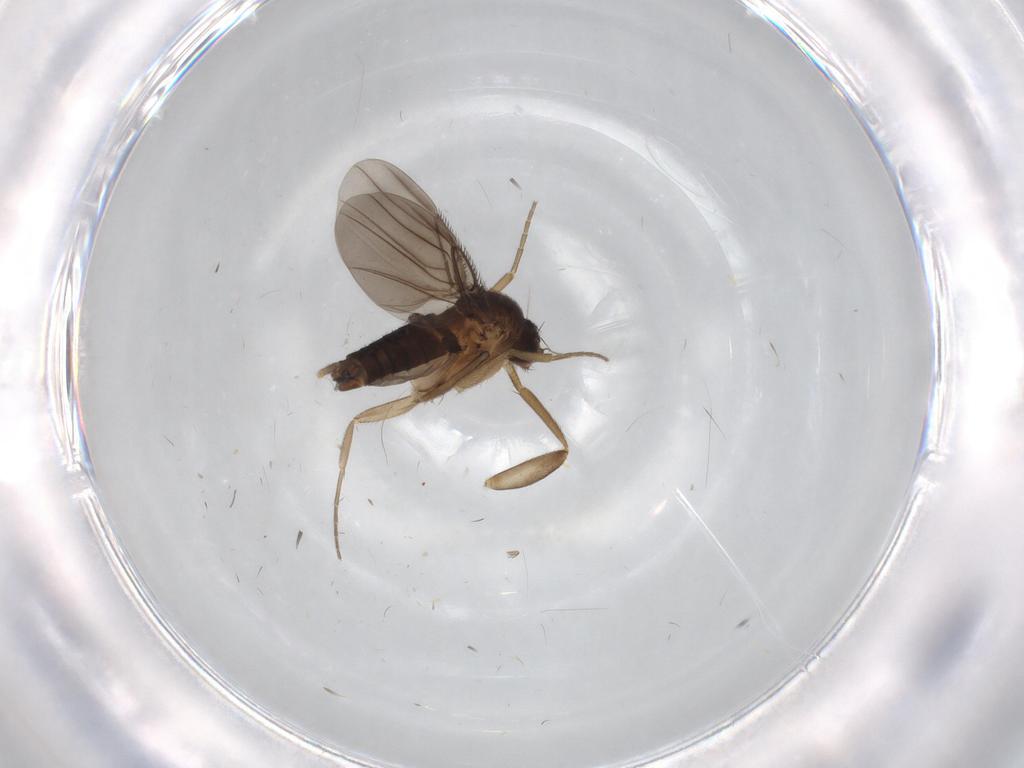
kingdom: Animalia
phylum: Arthropoda
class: Insecta
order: Diptera
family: Phoridae
